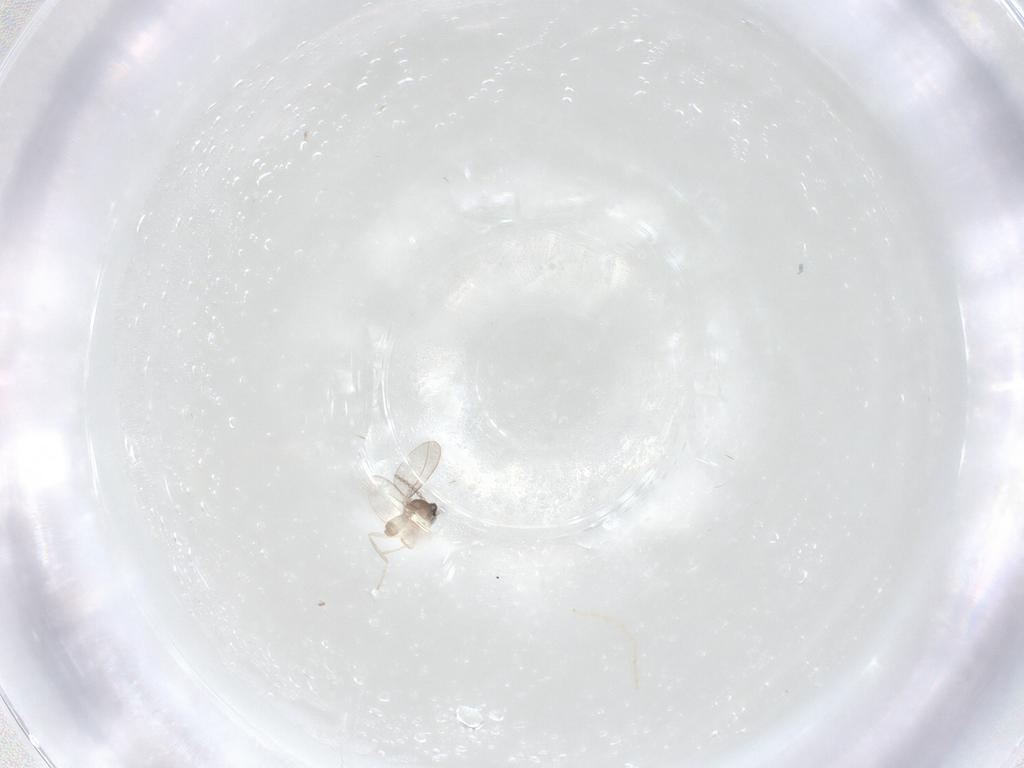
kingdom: Animalia
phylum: Arthropoda
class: Insecta
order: Diptera
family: Chironomidae
